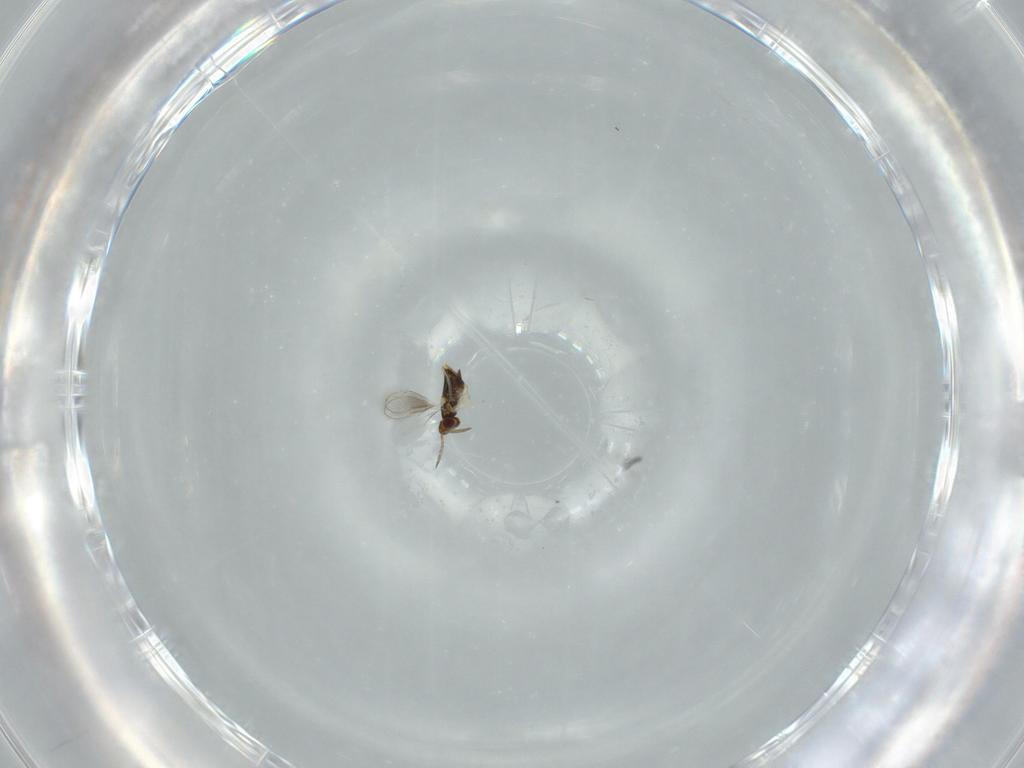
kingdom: Animalia
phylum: Arthropoda
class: Insecta
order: Hymenoptera
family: Aphelinidae
